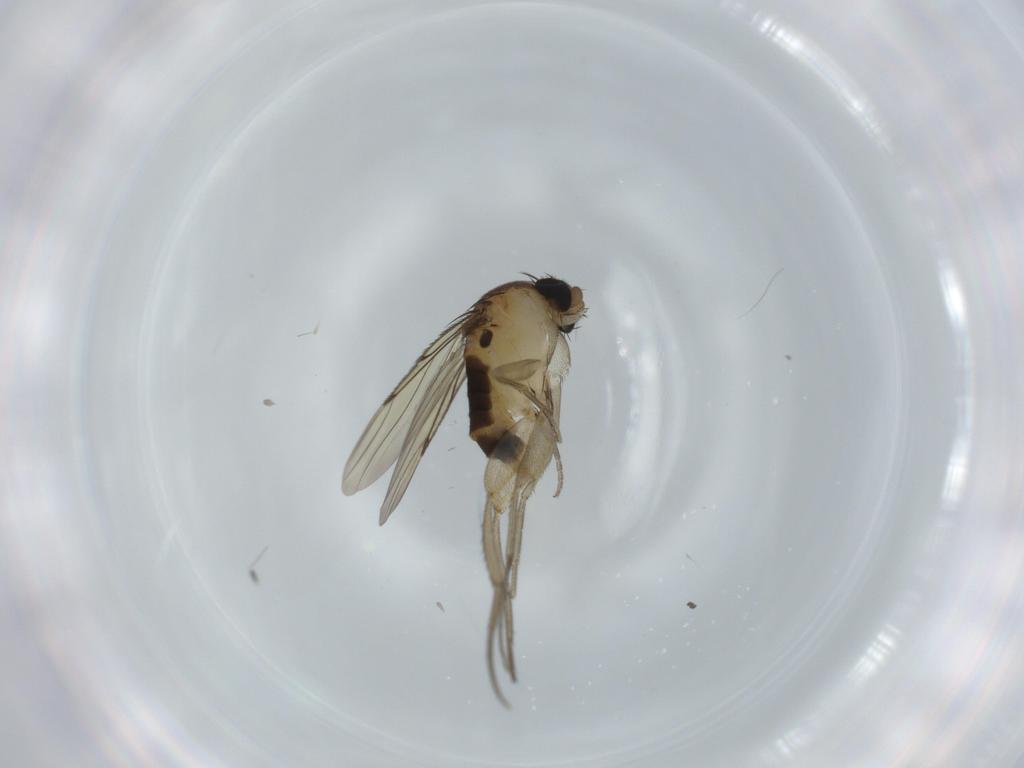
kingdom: Animalia
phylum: Arthropoda
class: Insecta
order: Diptera
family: Phoridae
